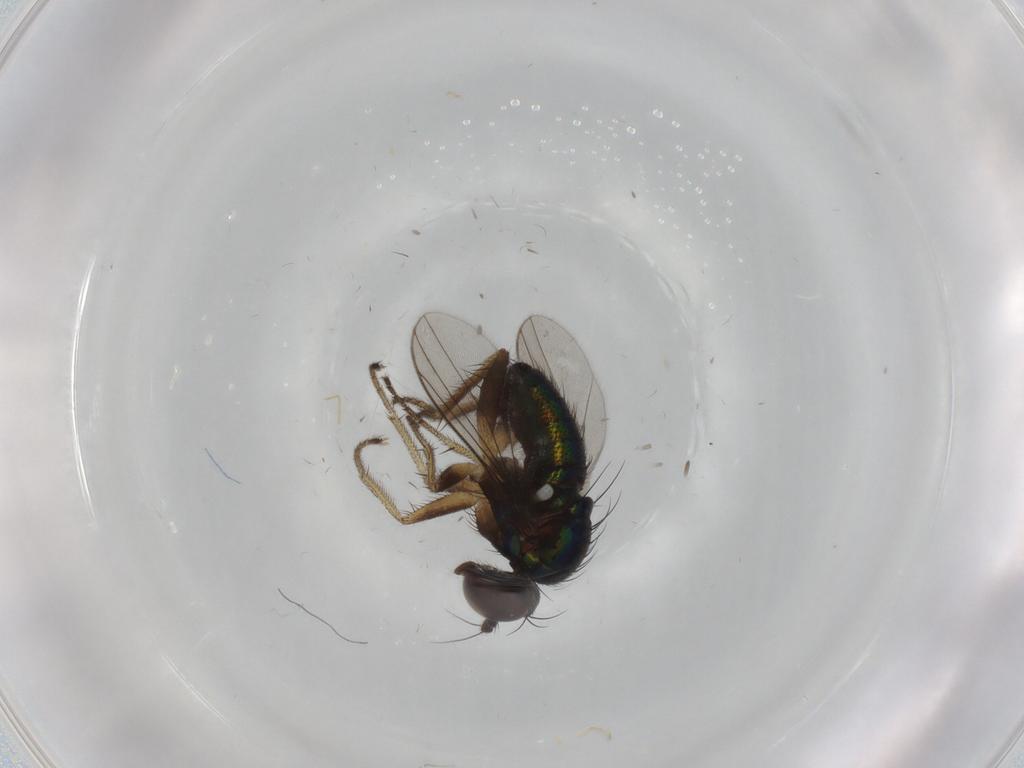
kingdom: Animalia
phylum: Arthropoda
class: Insecta
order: Diptera
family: Dolichopodidae
